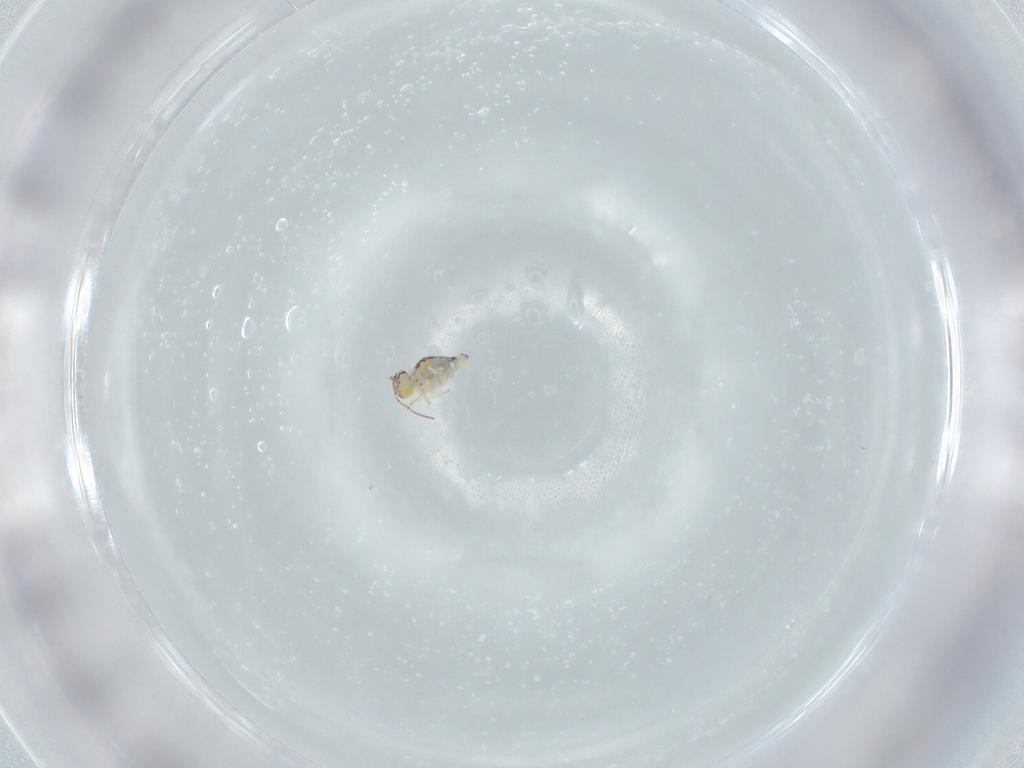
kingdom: Animalia
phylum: Arthropoda
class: Collembola
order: Symphypleona
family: Bourletiellidae
